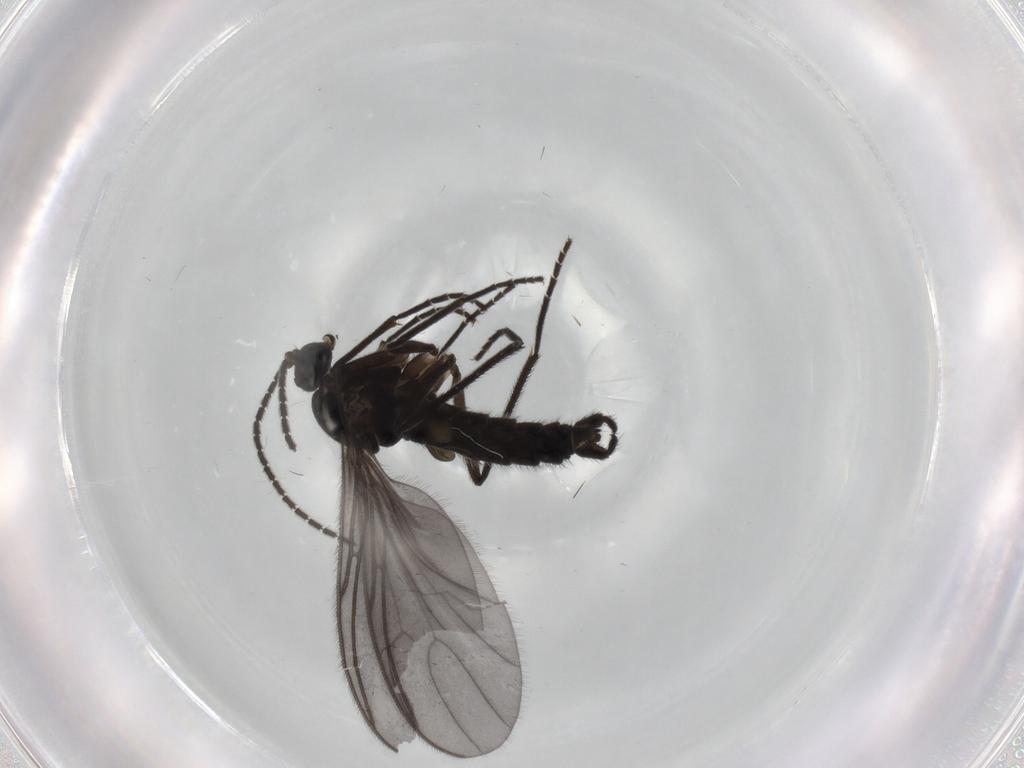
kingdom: Animalia
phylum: Arthropoda
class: Insecta
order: Diptera
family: Sciaridae
